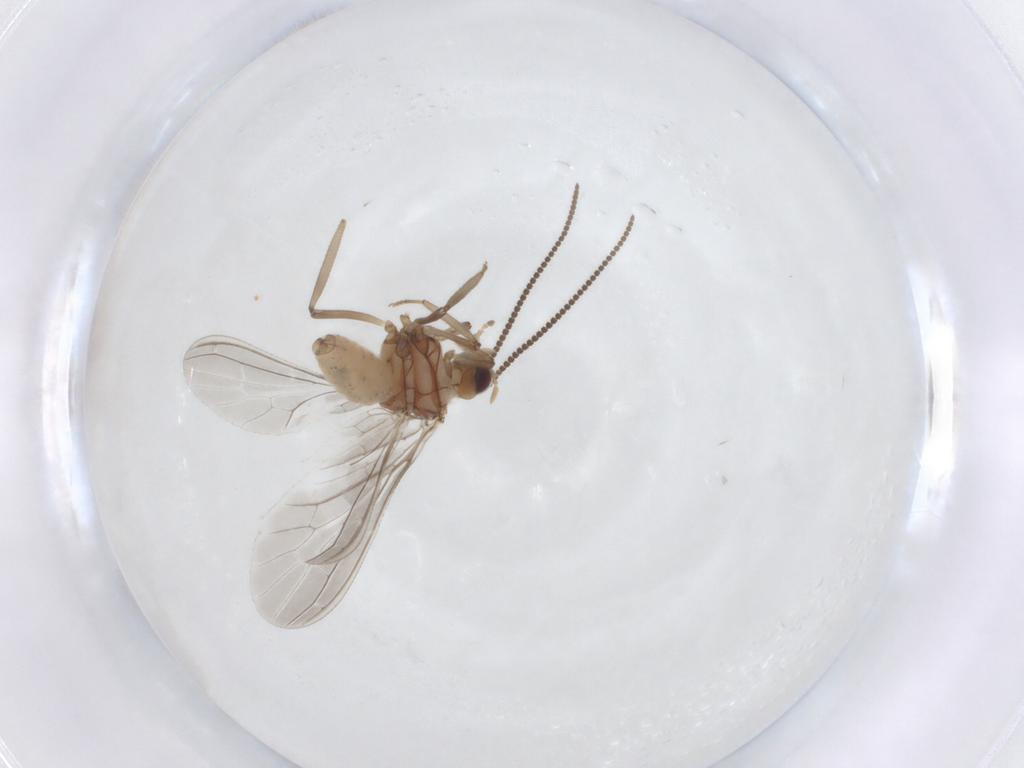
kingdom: Animalia
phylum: Arthropoda
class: Insecta
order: Neuroptera
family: Coniopterygidae
